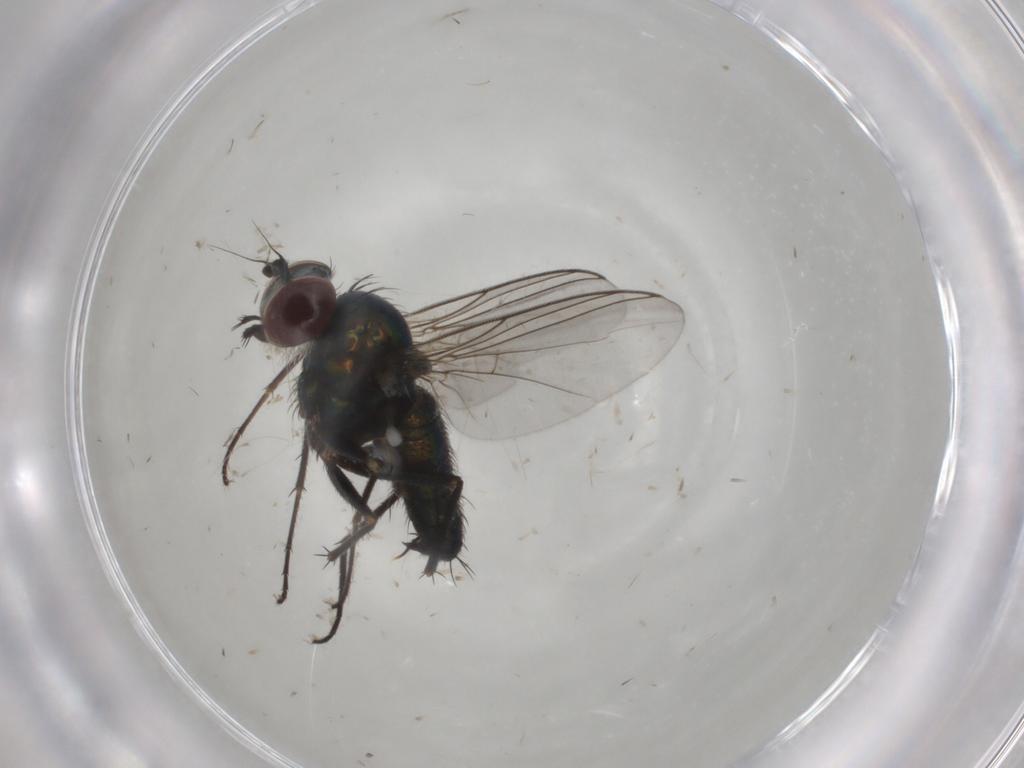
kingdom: Animalia
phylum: Arthropoda
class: Insecta
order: Diptera
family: Dolichopodidae
